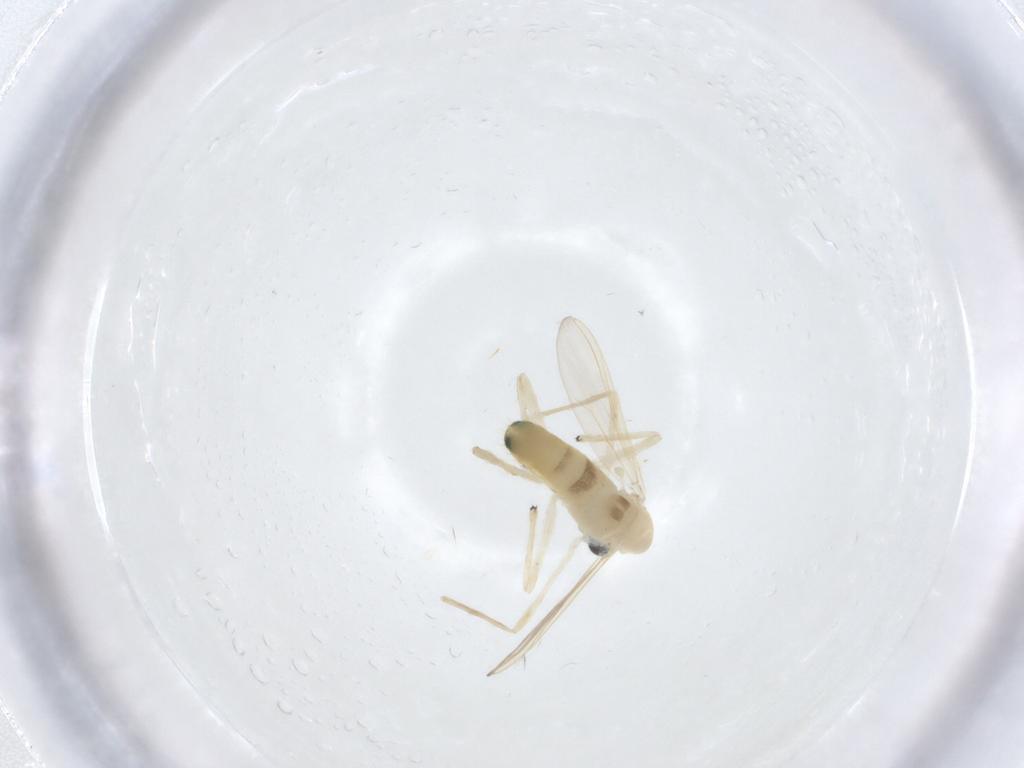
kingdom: Animalia
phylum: Arthropoda
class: Insecta
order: Diptera
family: Chironomidae
